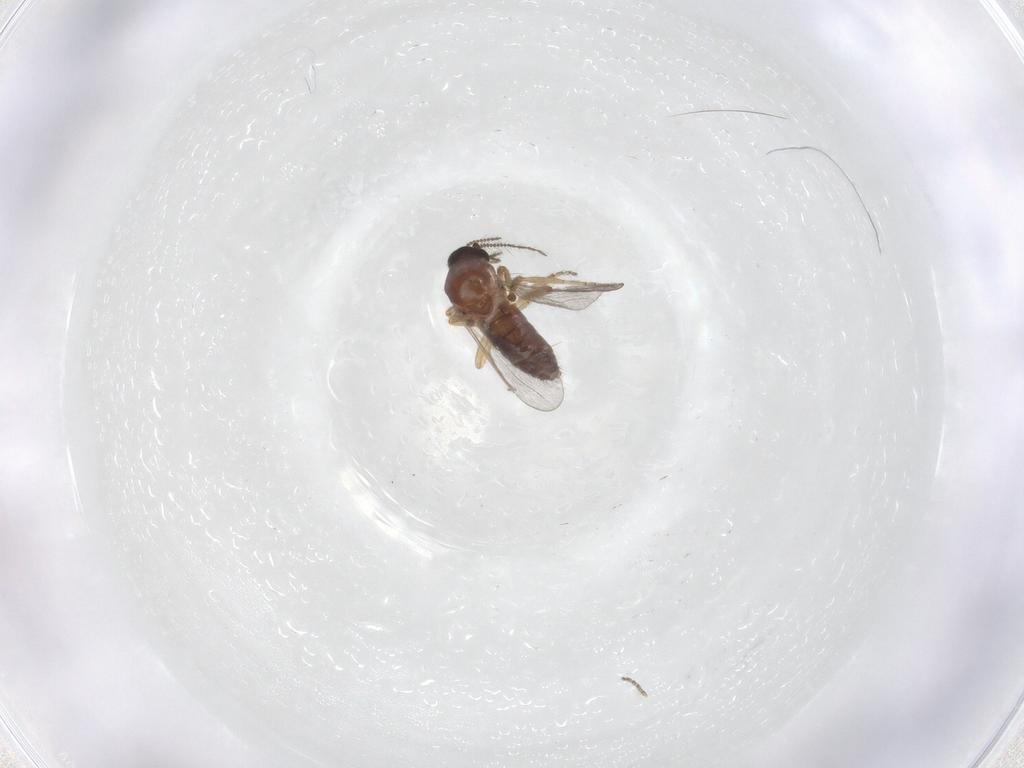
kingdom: Animalia
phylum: Arthropoda
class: Insecta
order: Diptera
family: Ceratopogonidae
